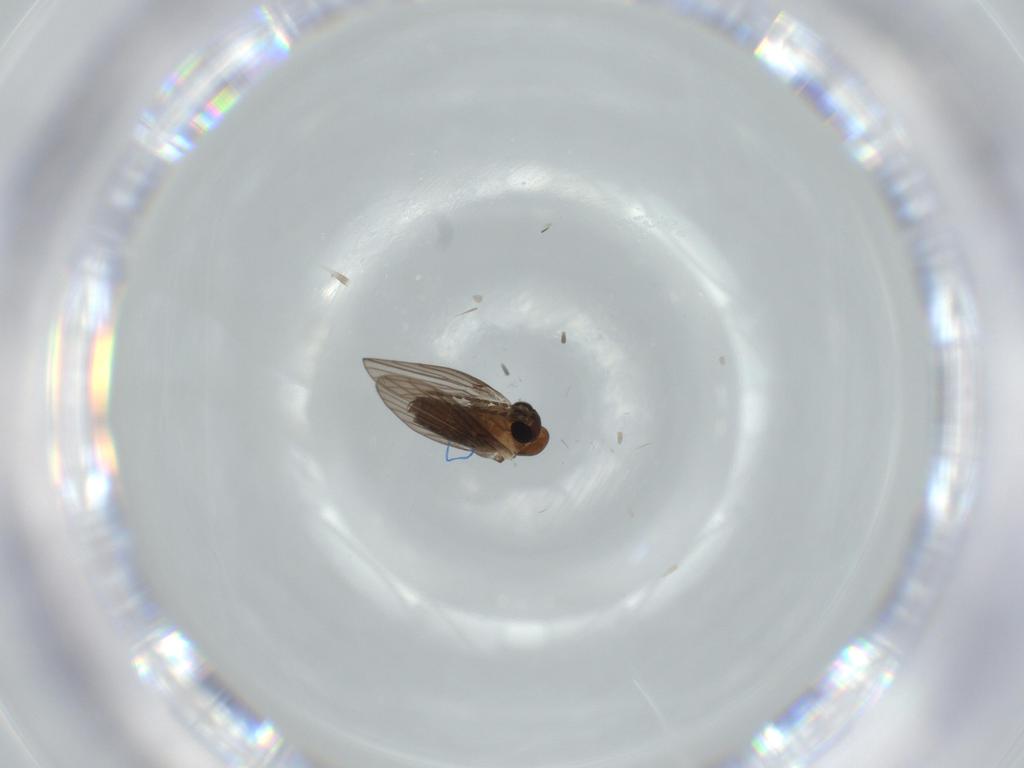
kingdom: Animalia
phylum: Arthropoda
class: Insecta
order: Diptera
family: Psychodidae
